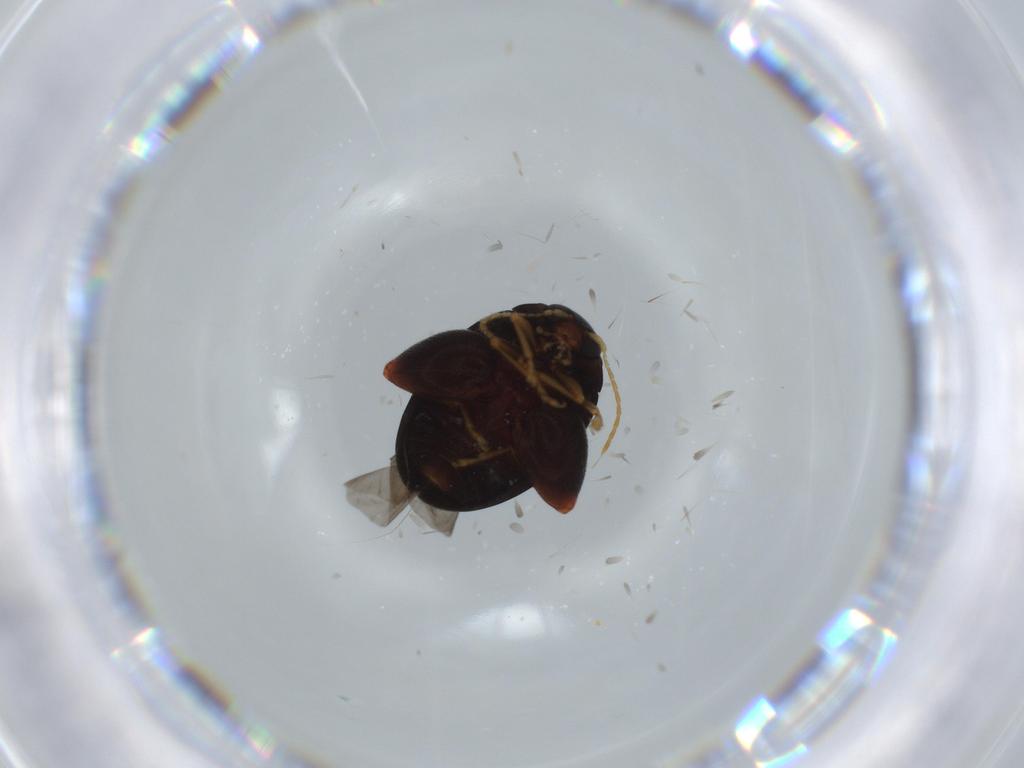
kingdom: Animalia
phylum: Arthropoda
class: Insecta
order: Coleoptera
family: Chrysomelidae
